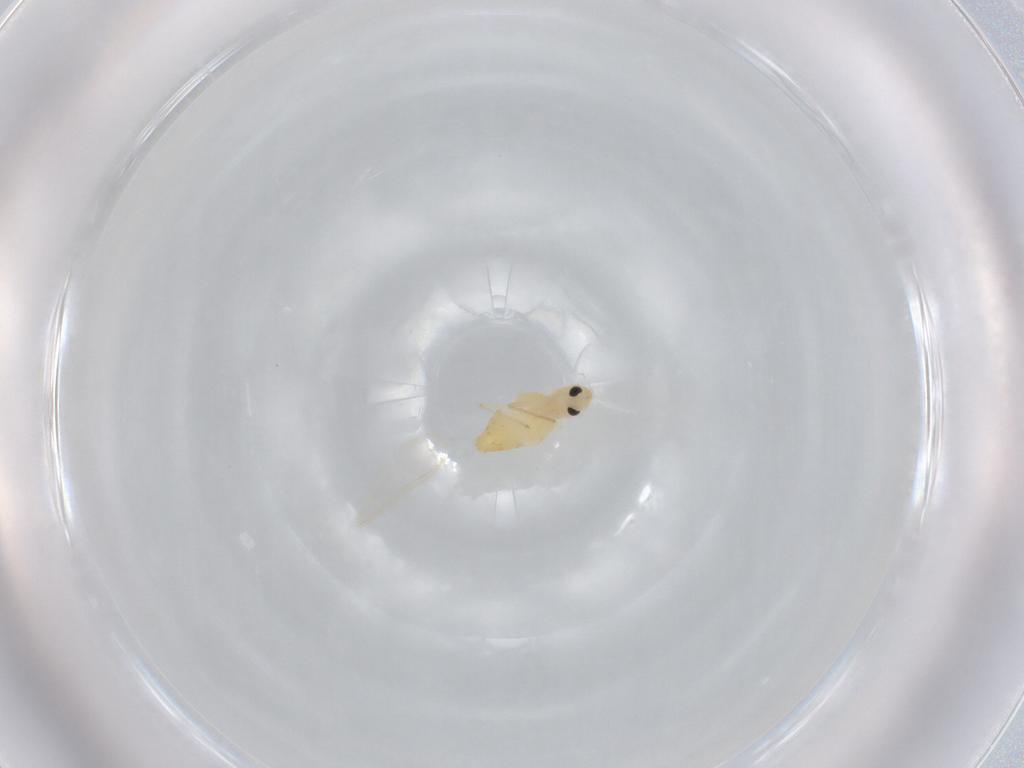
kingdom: Animalia
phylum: Arthropoda
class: Insecta
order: Diptera
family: Chironomidae
